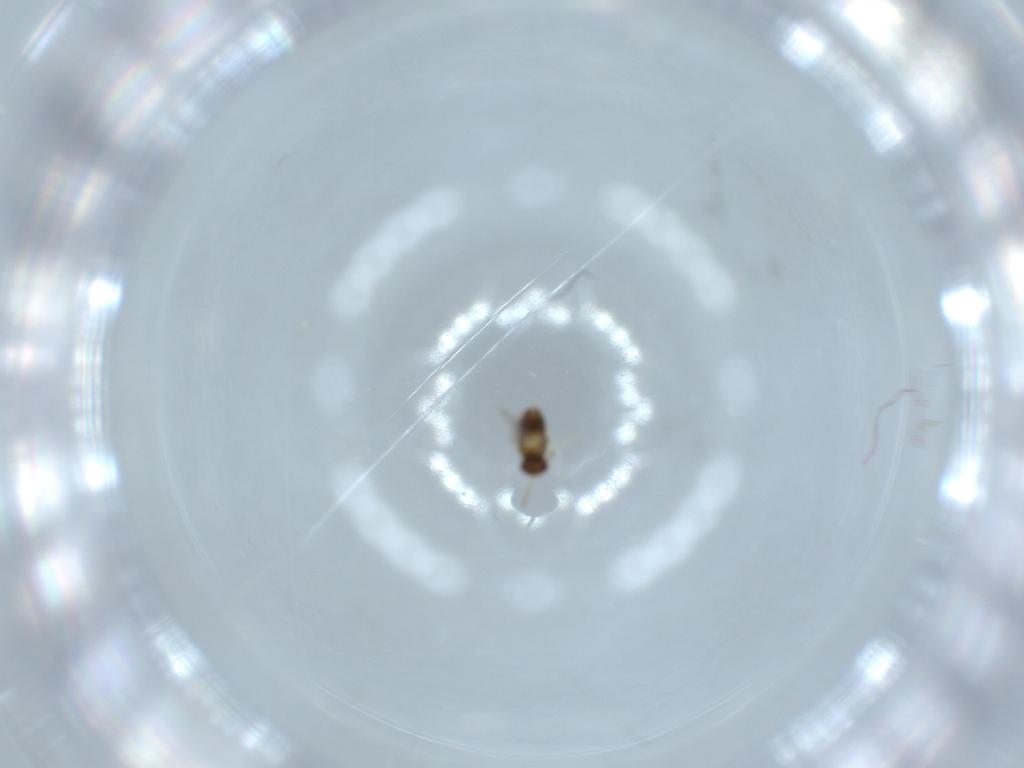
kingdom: Animalia
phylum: Arthropoda
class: Insecta
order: Hymenoptera
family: Aphelinidae
